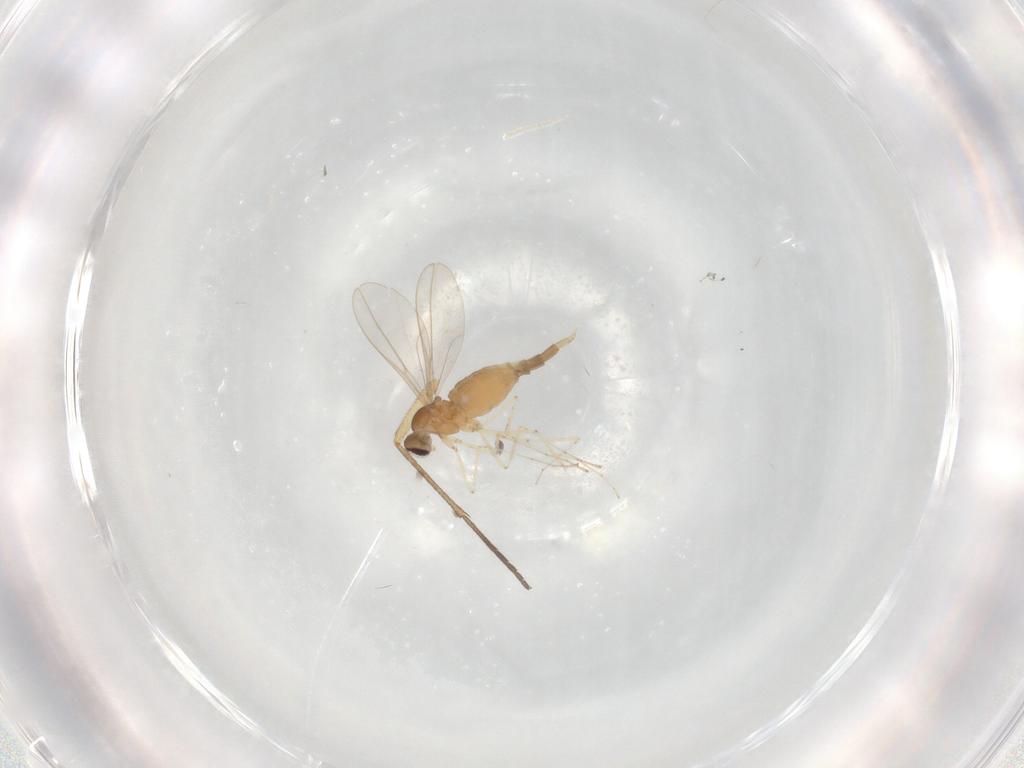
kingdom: Animalia
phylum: Arthropoda
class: Insecta
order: Diptera
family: Cecidomyiidae
